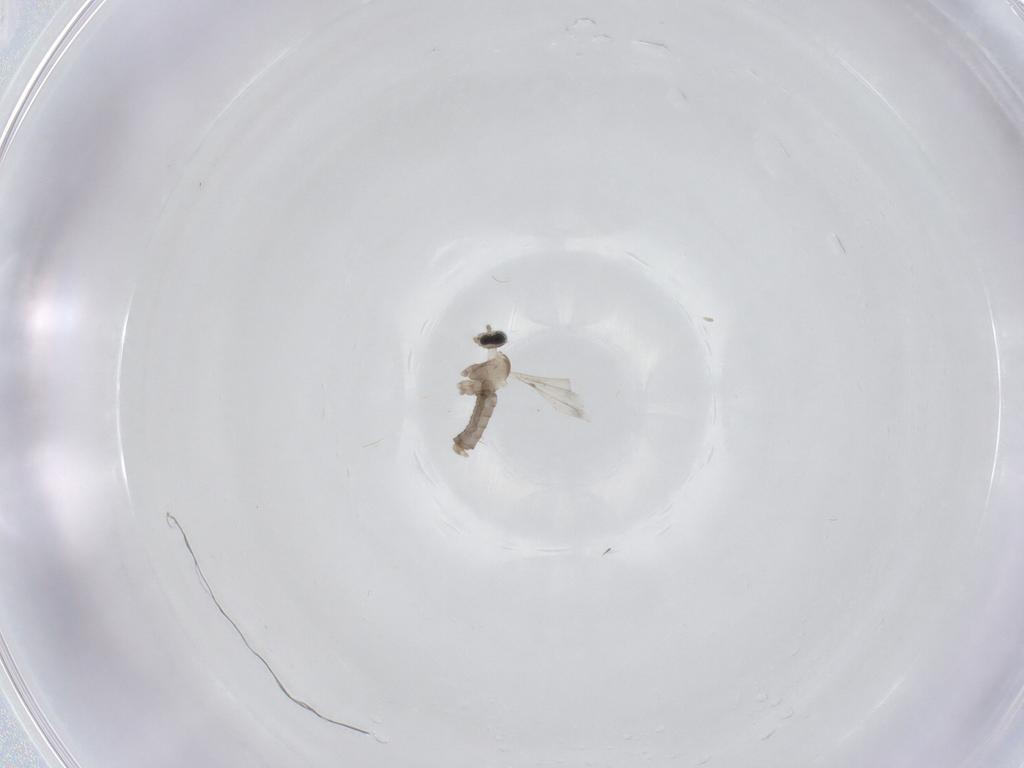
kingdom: Animalia
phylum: Arthropoda
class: Insecta
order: Diptera
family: Cecidomyiidae
